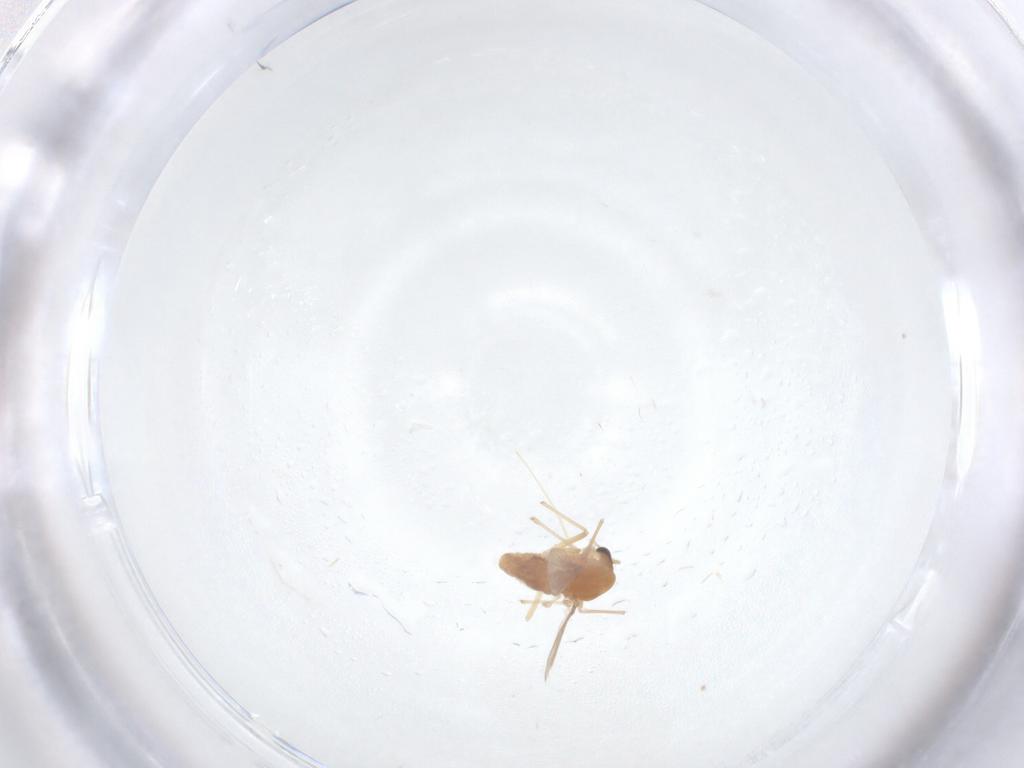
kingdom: Animalia
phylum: Arthropoda
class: Insecta
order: Diptera
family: Chironomidae
